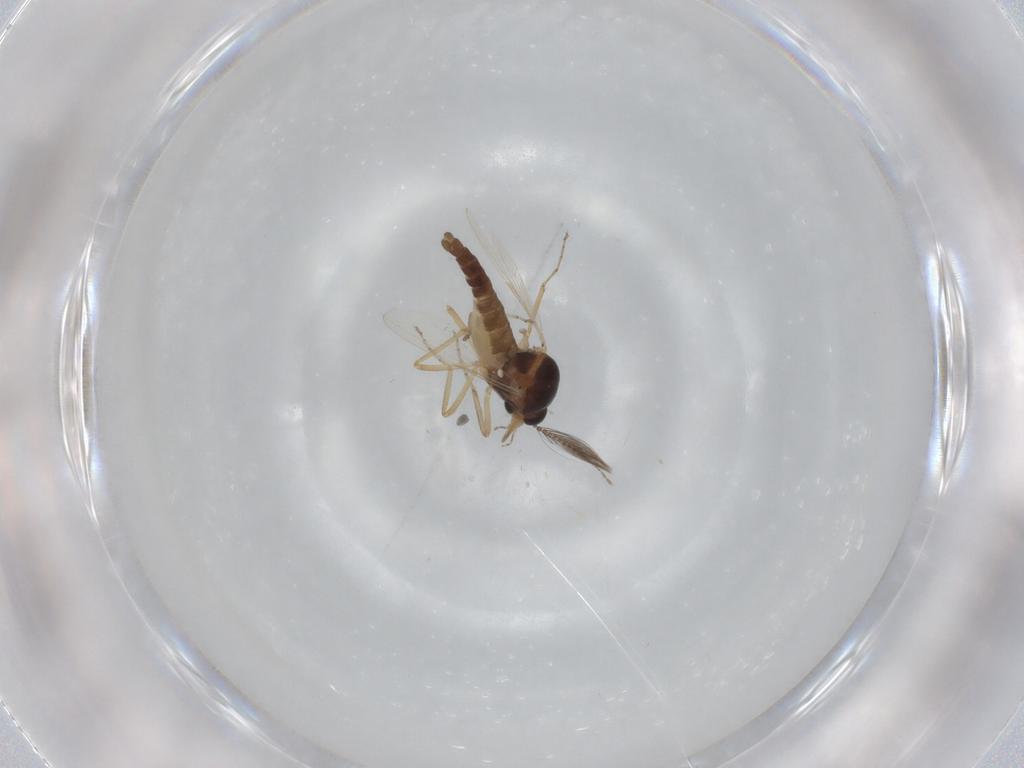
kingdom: Animalia
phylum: Arthropoda
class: Insecta
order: Diptera
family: Ceratopogonidae
